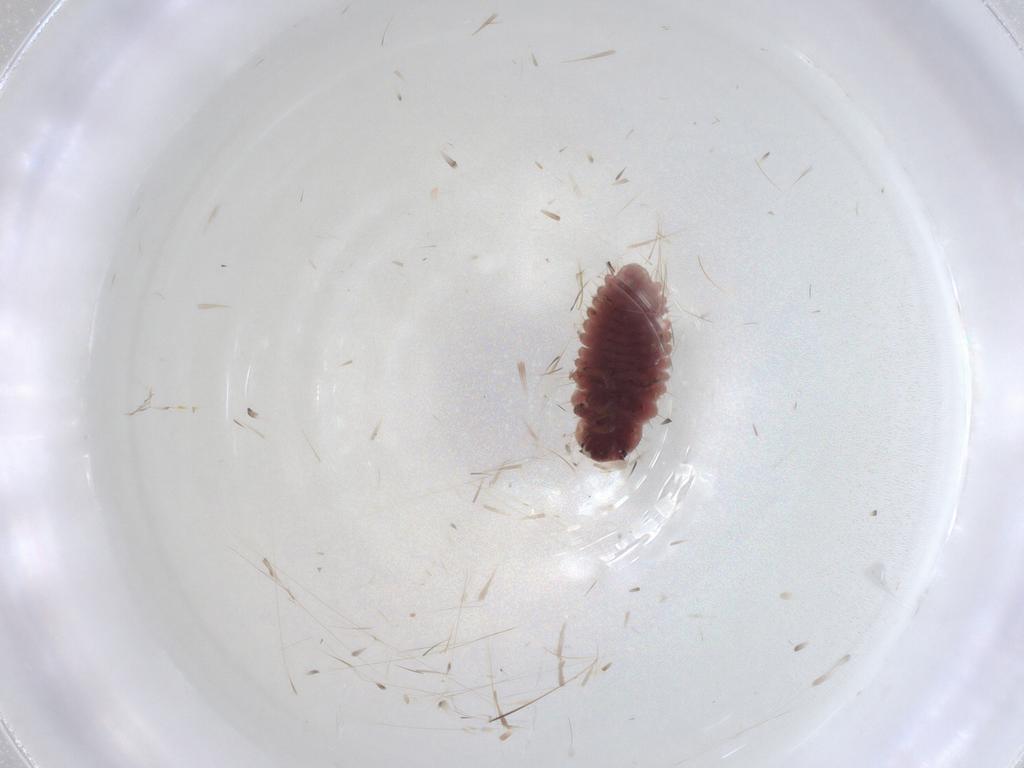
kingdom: Animalia
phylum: Arthropoda
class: Insecta
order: Coleoptera
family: Coccinellidae
